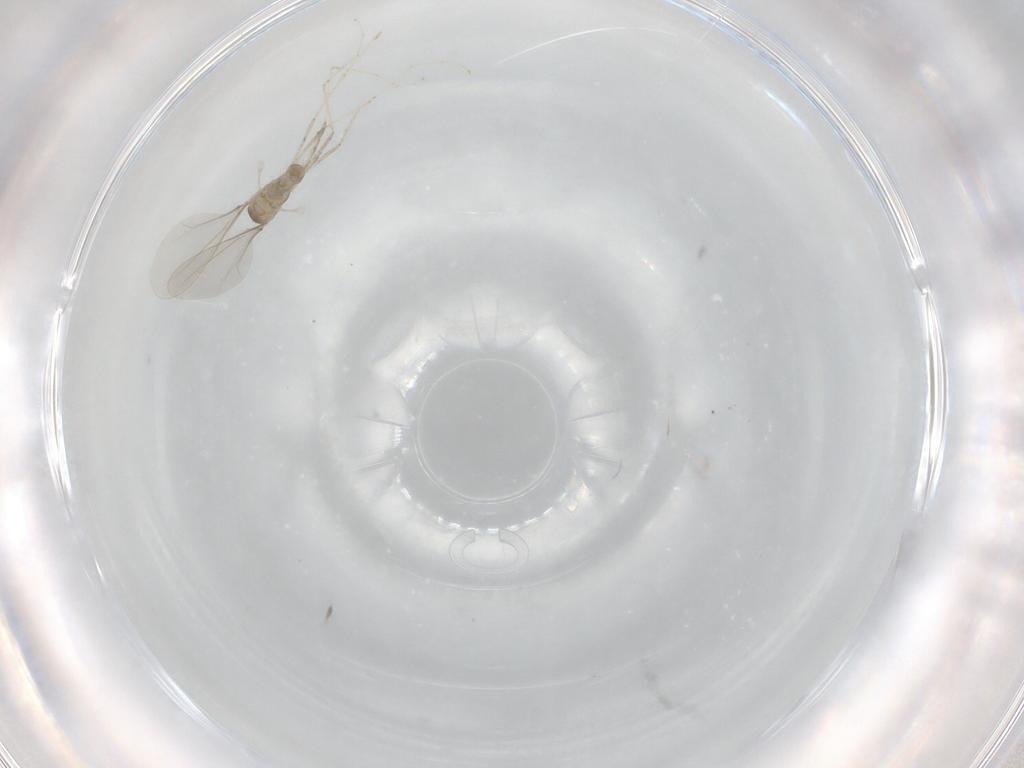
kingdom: Animalia
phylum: Arthropoda
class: Insecta
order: Diptera
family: Cecidomyiidae
